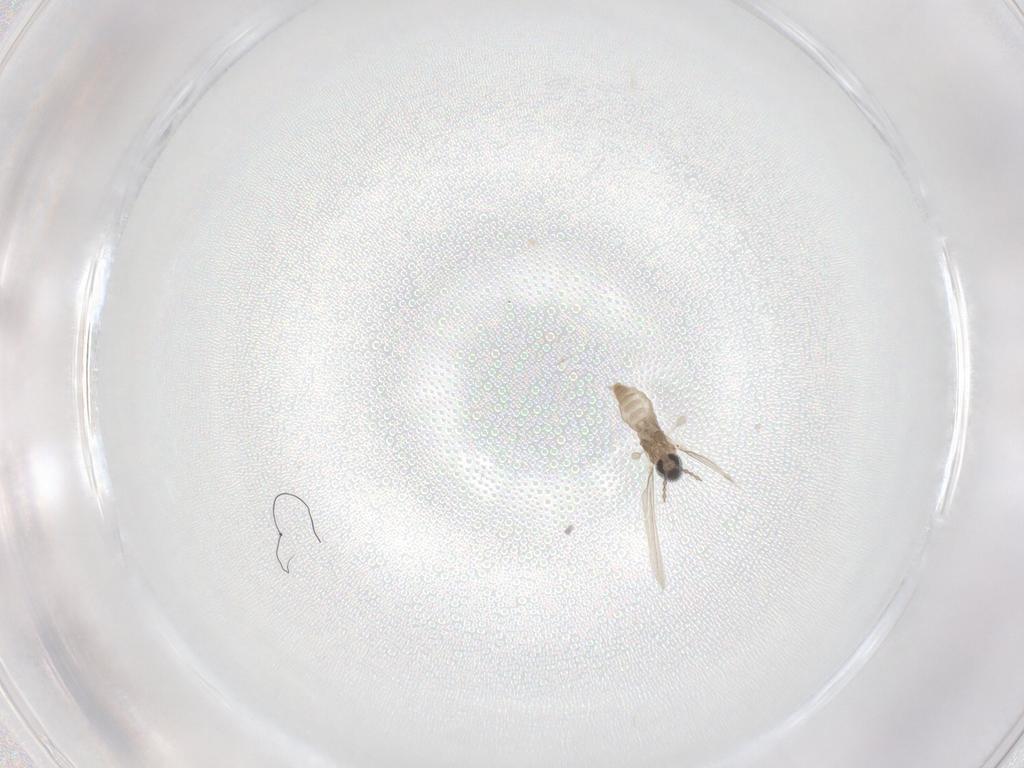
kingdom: Animalia
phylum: Arthropoda
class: Insecta
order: Diptera
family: Cecidomyiidae
